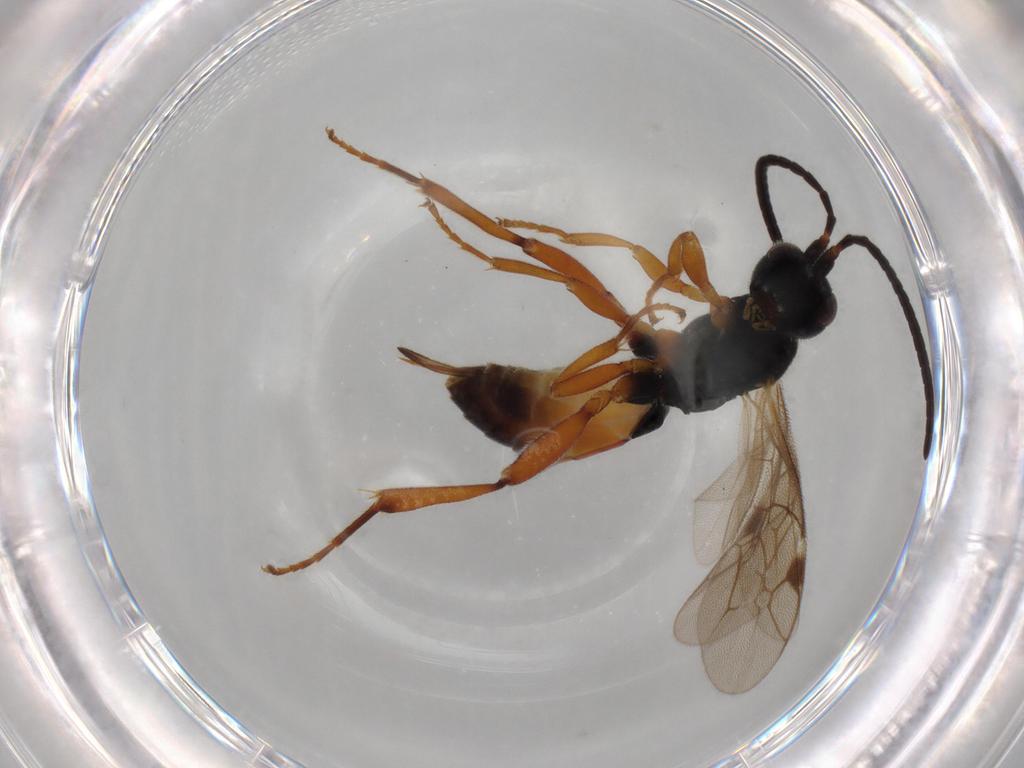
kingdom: Animalia
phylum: Arthropoda
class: Insecta
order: Hymenoptera
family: Ichneumonidae
